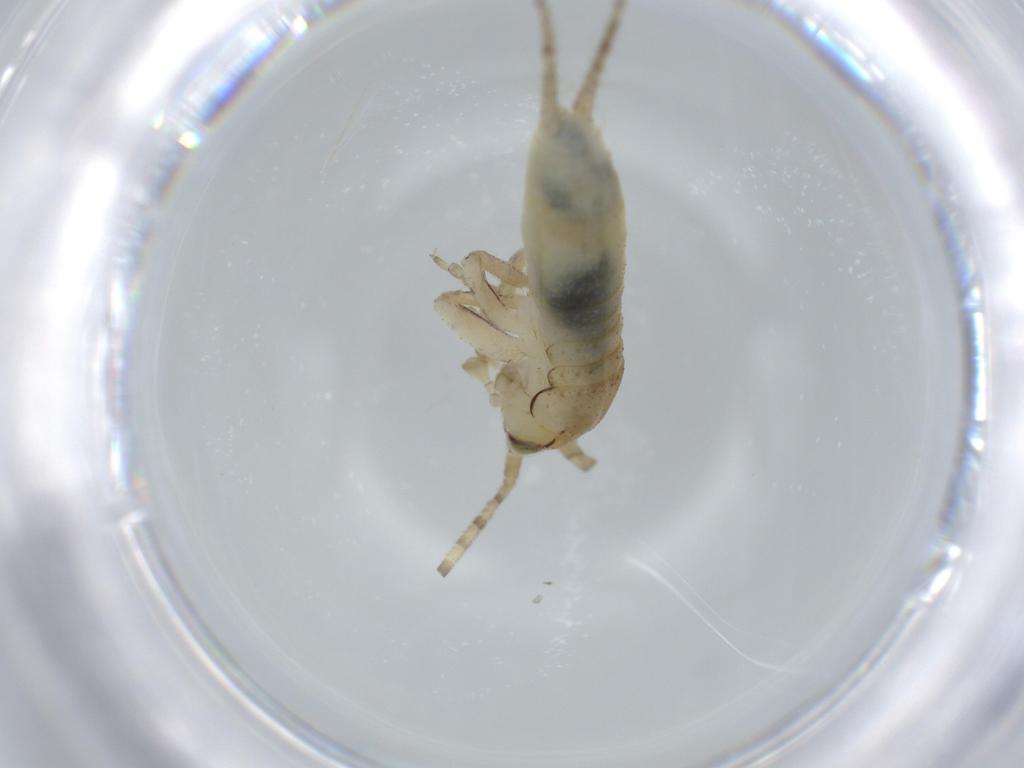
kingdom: Animalia
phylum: Arthropoda
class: Insecta
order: Orthoptera
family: Gryllidae
